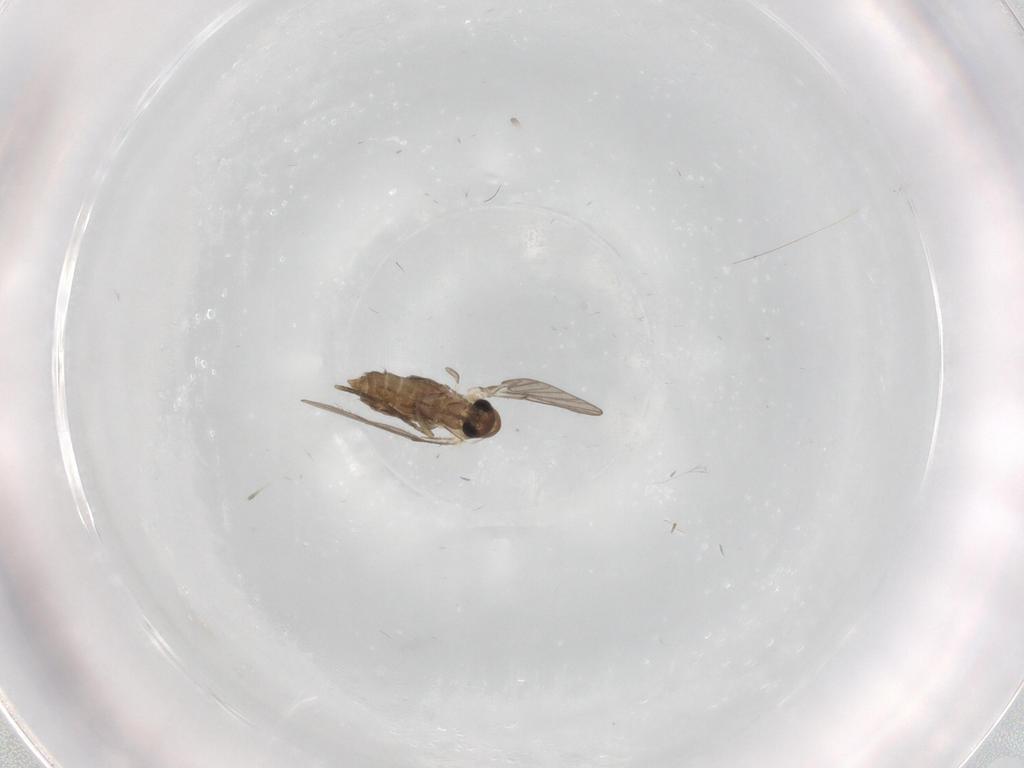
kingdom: Animalia
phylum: Arthropoda
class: Insecta
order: Diptera
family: Cecidomyiidae
